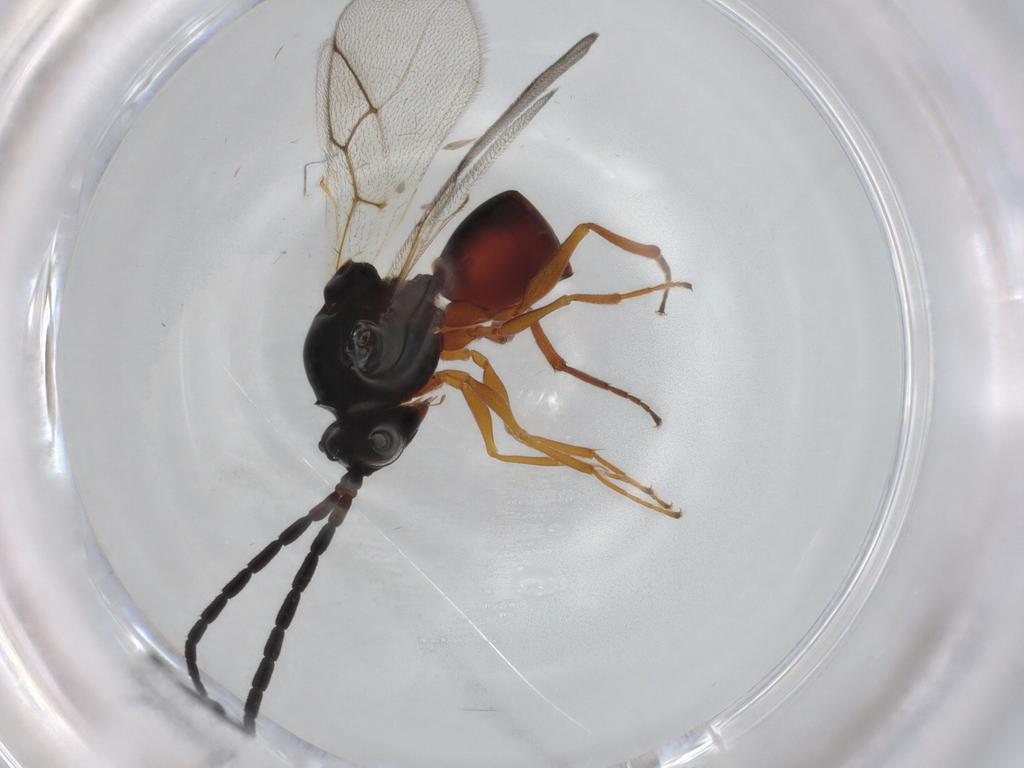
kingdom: Animalia
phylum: Arthropoda
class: Insecta
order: Hymenoptera
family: Figitidae
